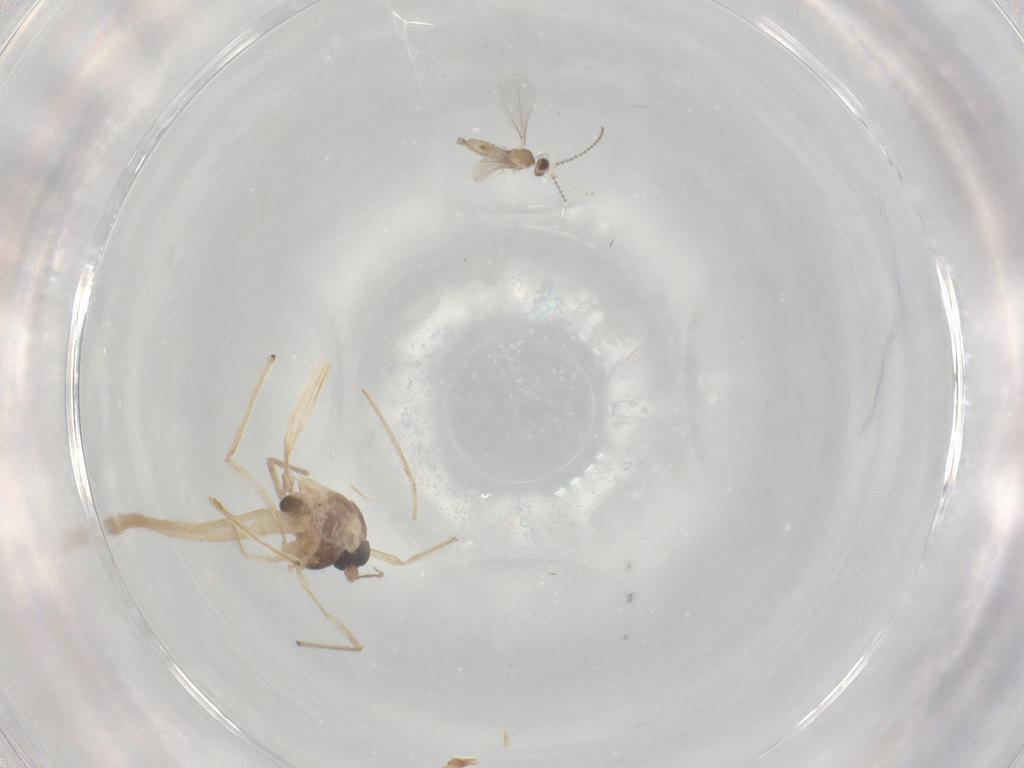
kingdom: Animalia
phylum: Arthropoda
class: Insecta
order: Diptera
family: Cecidomyiidae
